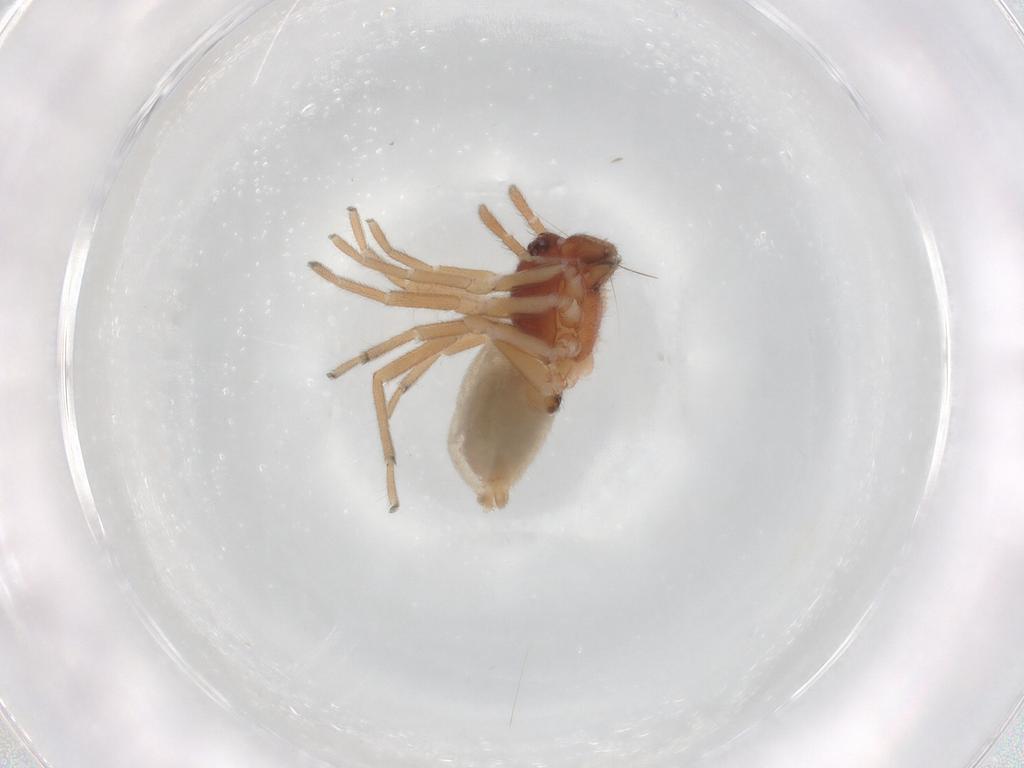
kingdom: Animalia
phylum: Arthropoda
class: Arachnida
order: Araneae
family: Trachelidae
